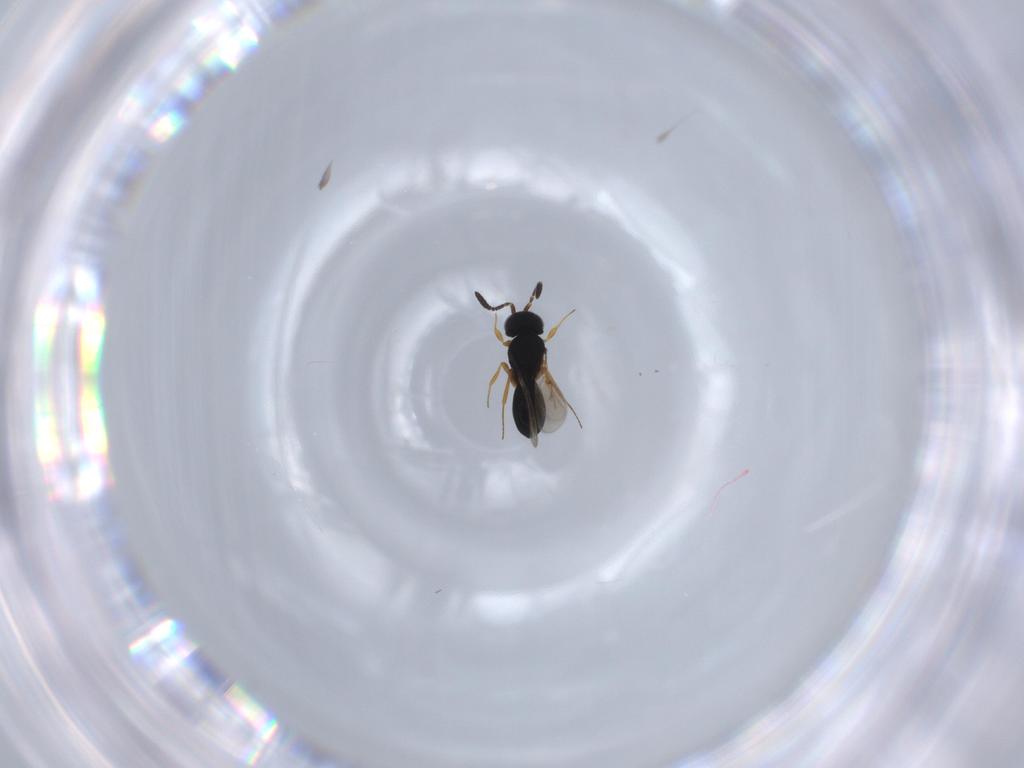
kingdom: Animalia
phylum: Arthropoda
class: Insecta
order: Hymenoptera
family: Scelionidae
